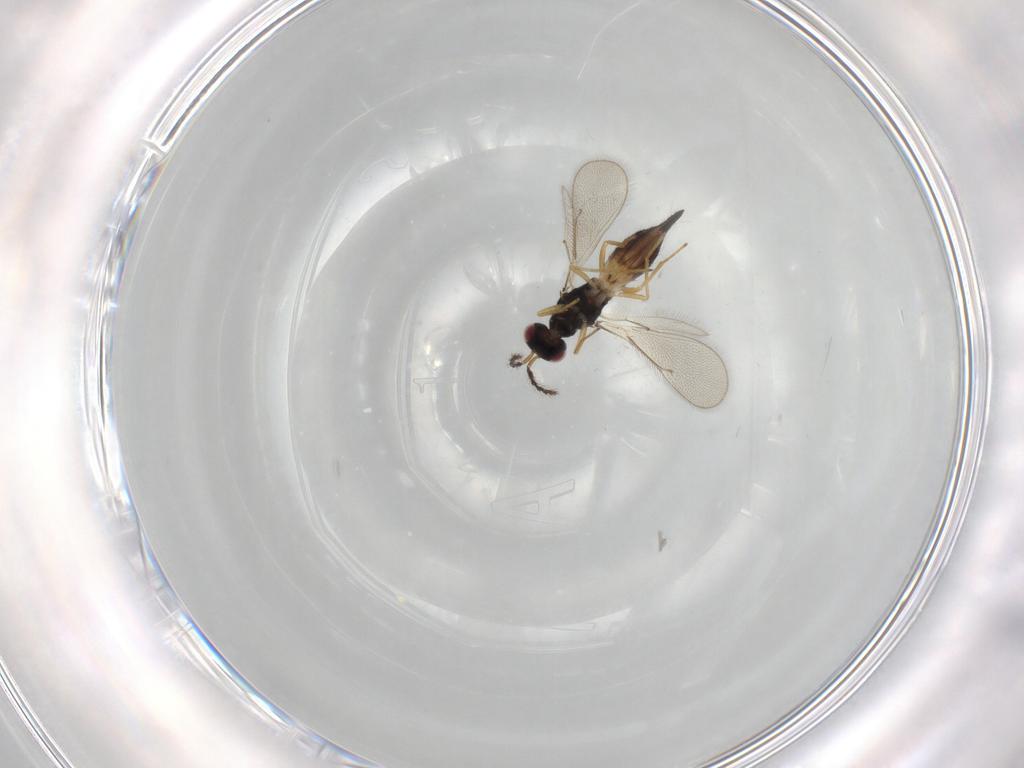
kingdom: Animalia
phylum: Arthropoda
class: Insecta
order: Hymenoptera
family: Eulophidae
